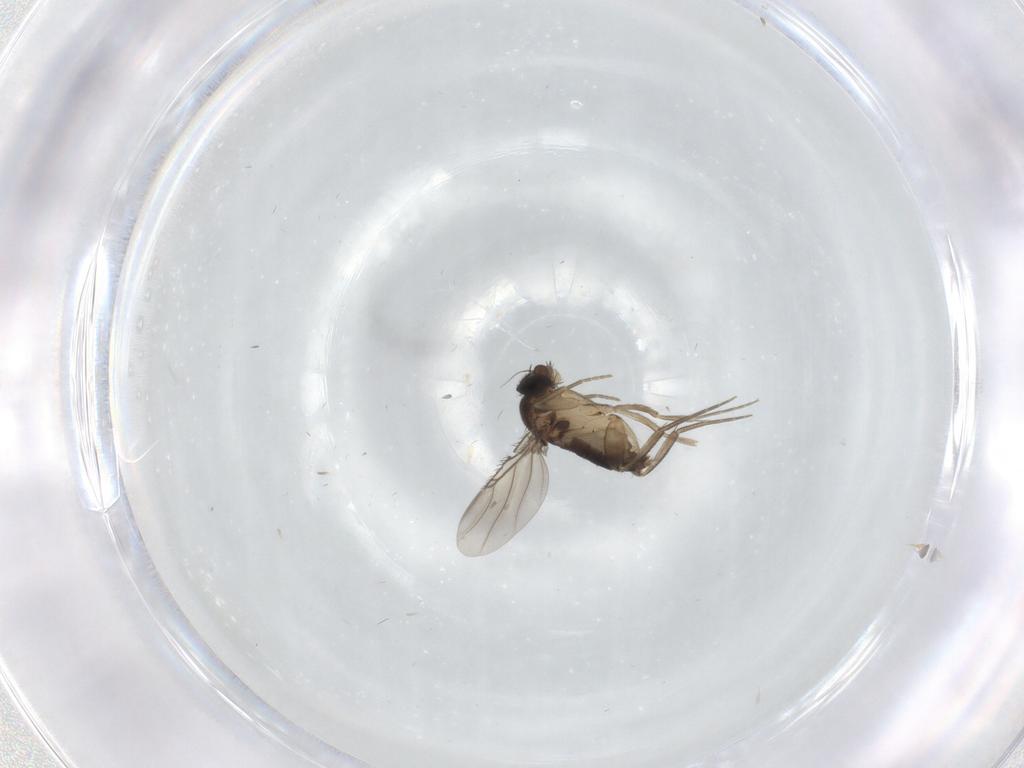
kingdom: Animalia
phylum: Arthropoda
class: Insecta
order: Diptera
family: Phoridae
